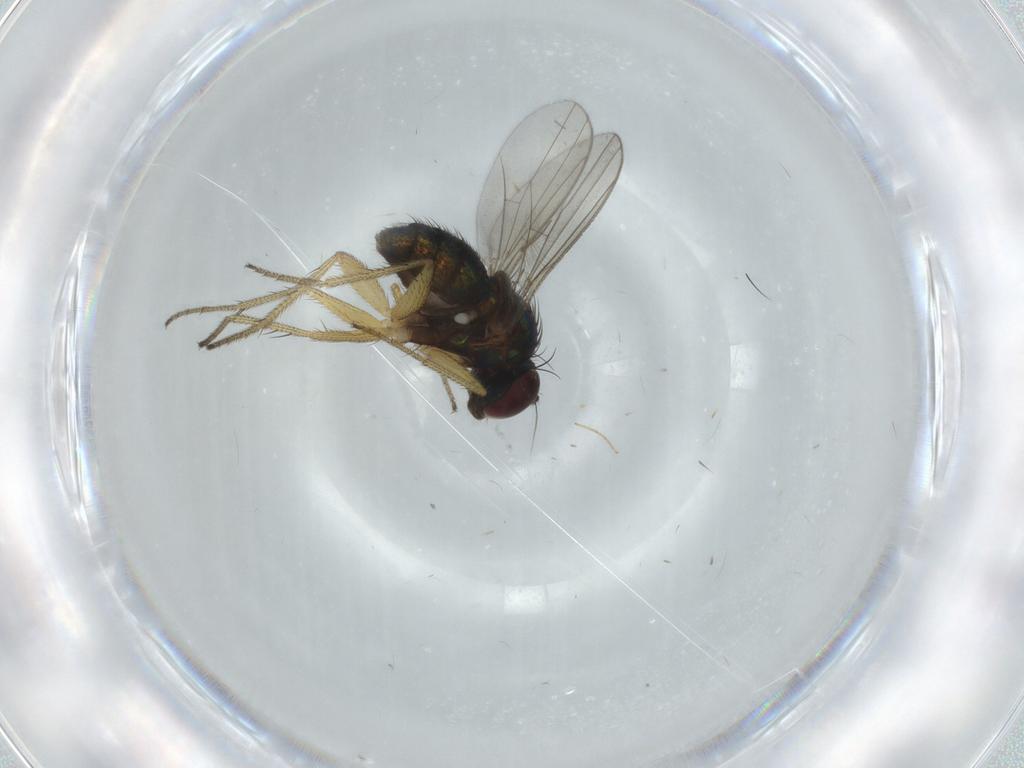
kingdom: Animalia
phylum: Arthropoda
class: Insecta
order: Diptera
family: Dolichopodidae
